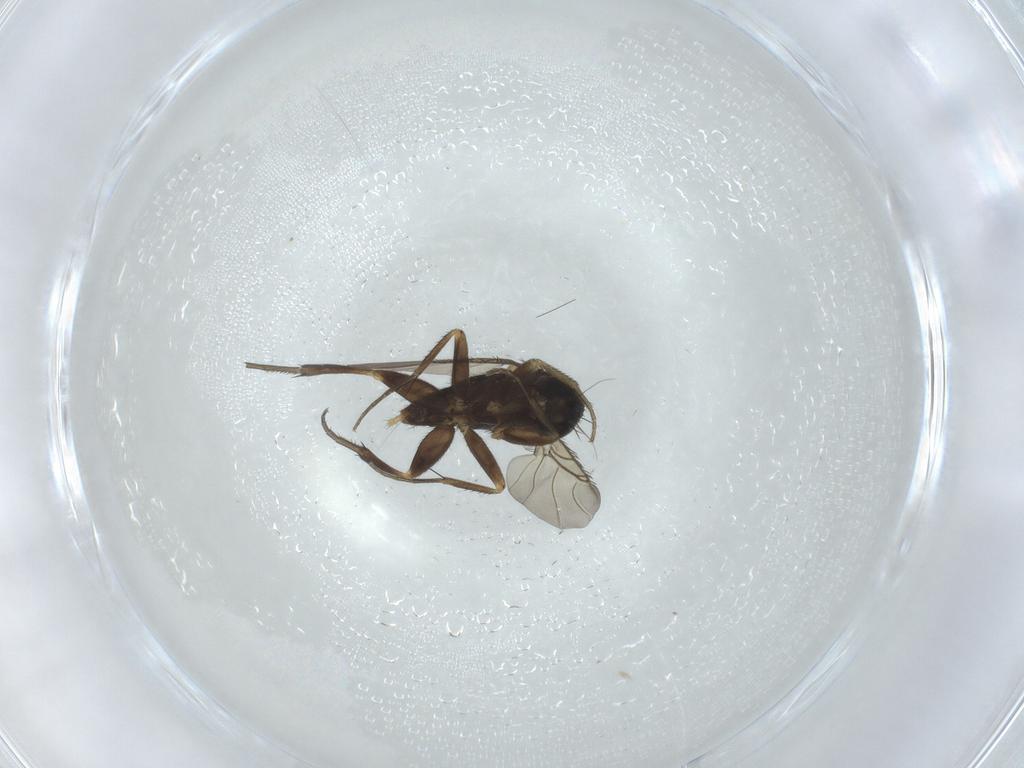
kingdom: Animalia
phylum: Arthropoda
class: Insecta
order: Diptera
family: Phoridae
